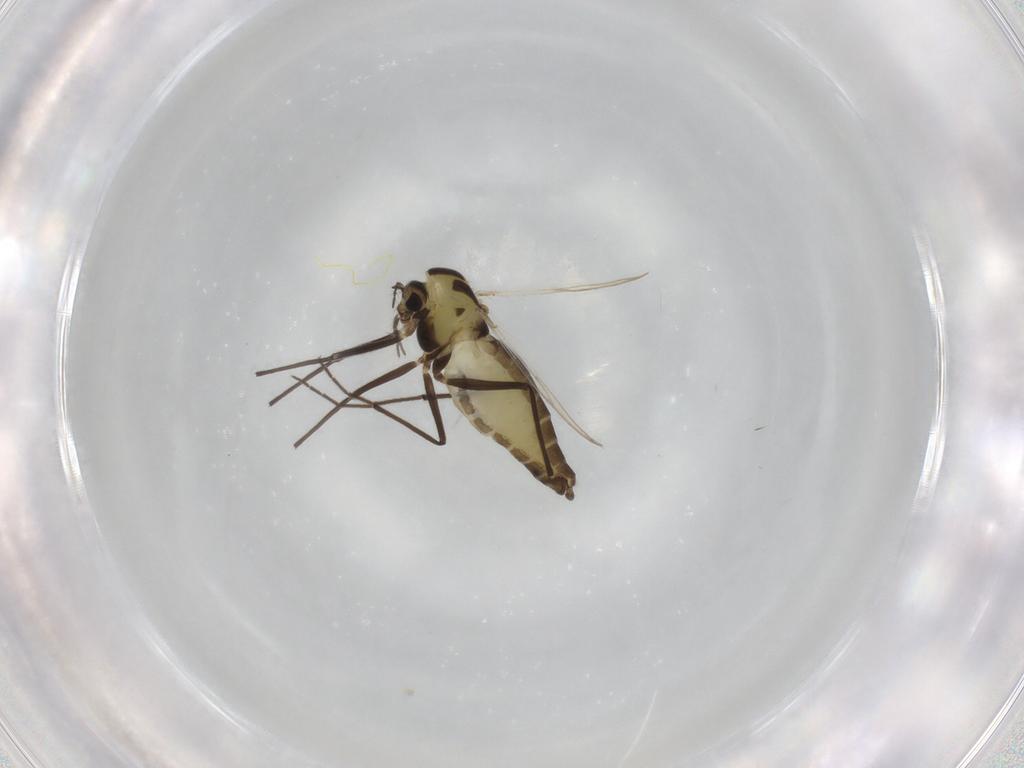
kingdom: Animalia
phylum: Arthropoda
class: Insecta
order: Diptera
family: Chironomidae
